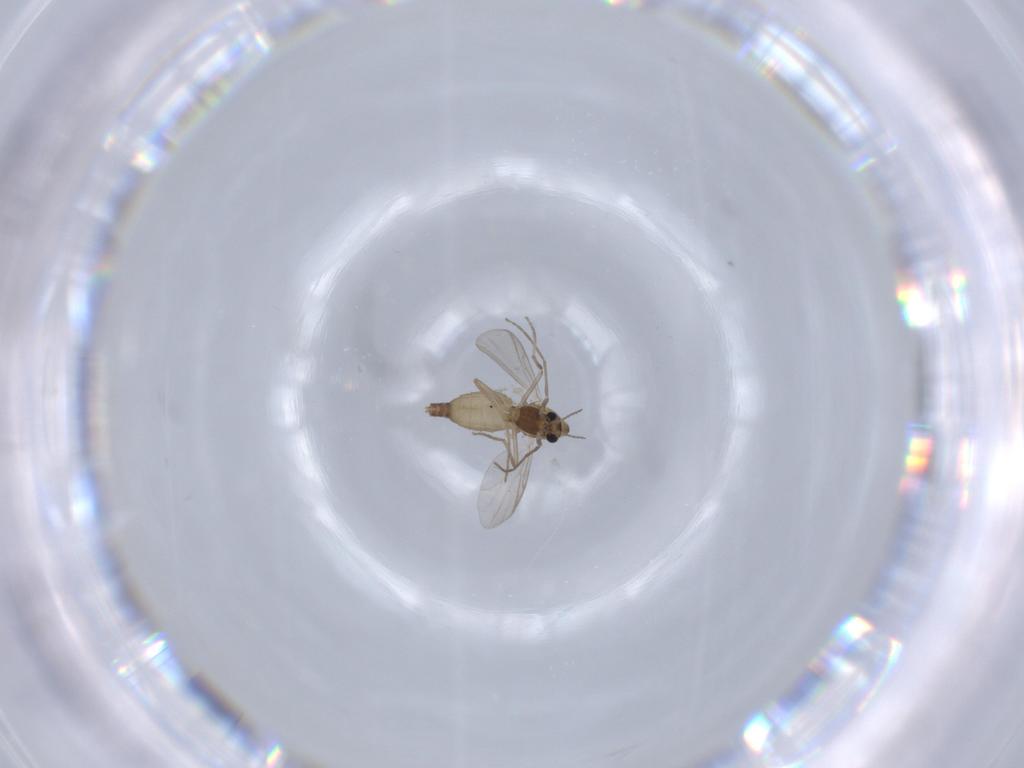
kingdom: Animalia
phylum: Arthropoda
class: Insecta
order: Diptera
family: Chironomidae
